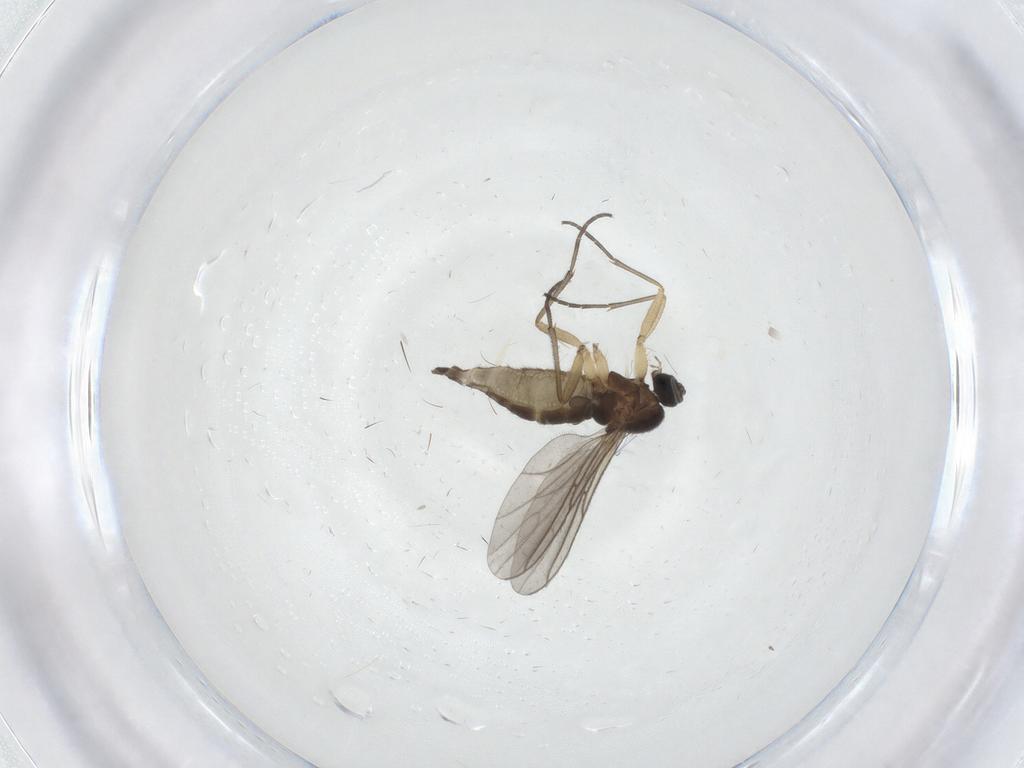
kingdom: Animalia
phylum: Arthropoda
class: Insecta
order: Diptera
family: Sciaridae
